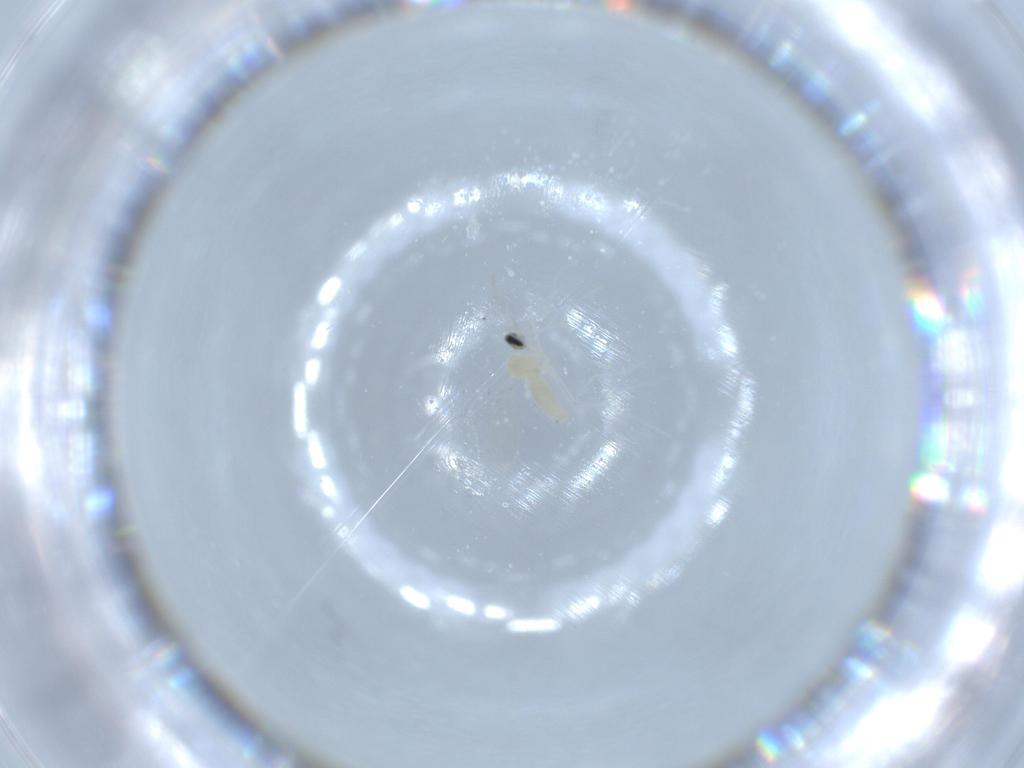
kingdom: Animalia
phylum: Arthropoda
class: Insecta
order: Diptera
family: Cecidomyiidae
